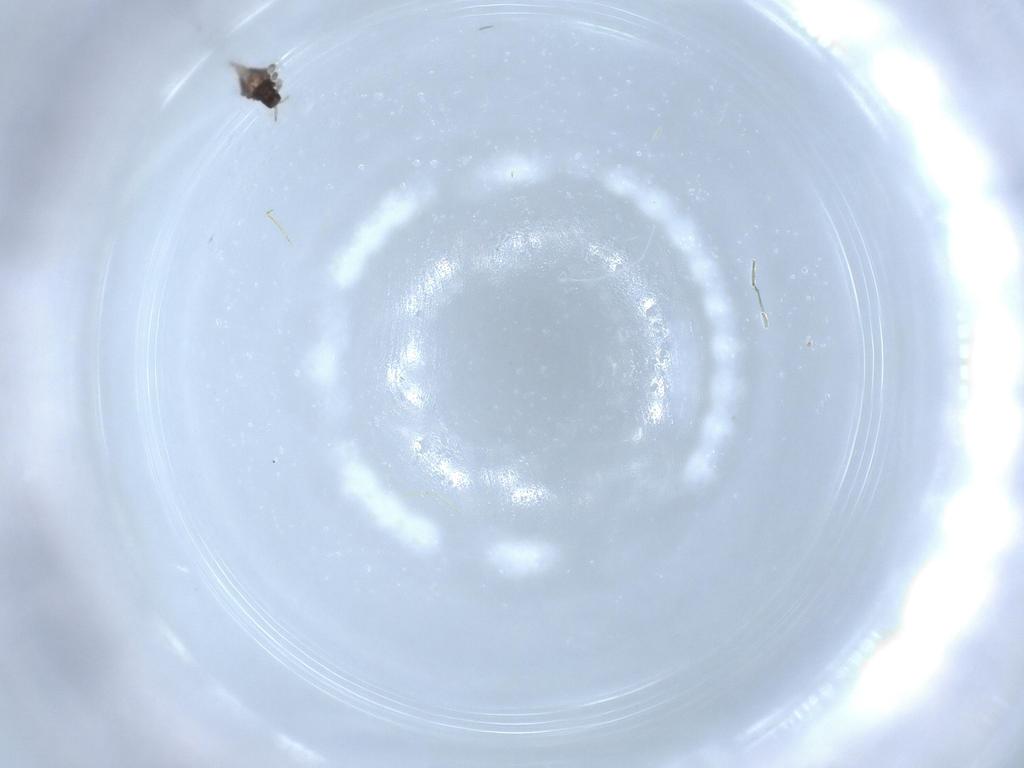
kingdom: Animalia
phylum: Arthropoda
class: Insecta
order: Thysanoptera
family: Phlaeothripidae
